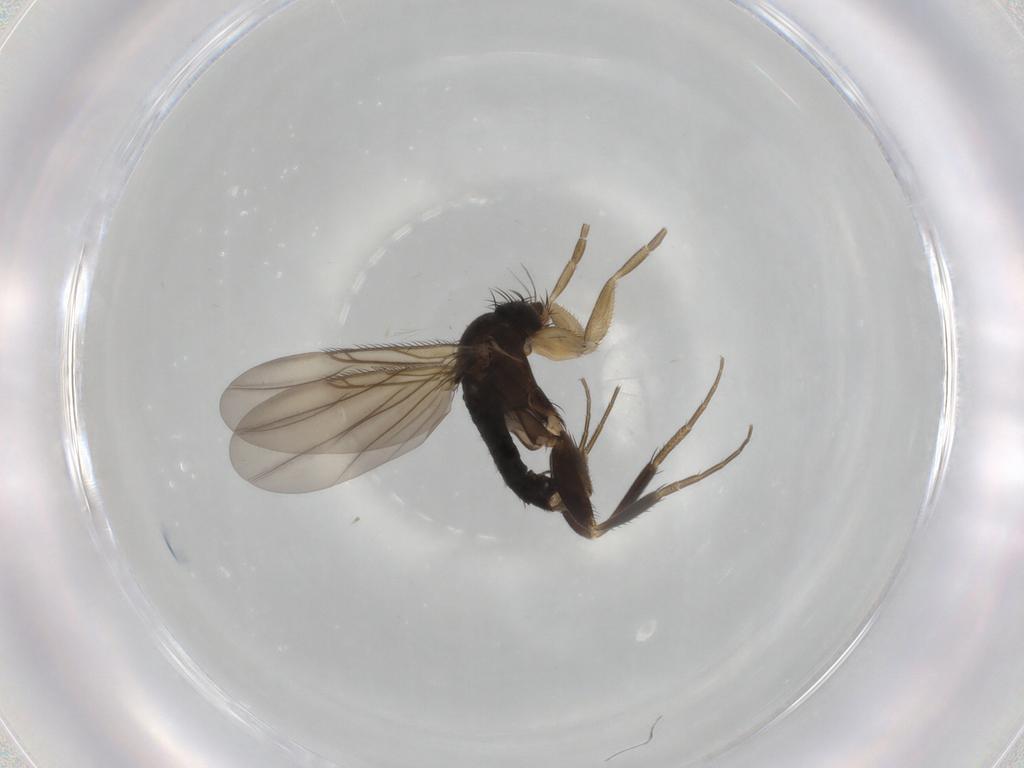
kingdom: Animalia
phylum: Arthropoda
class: Insecta
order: Diptera
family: Phoridae
